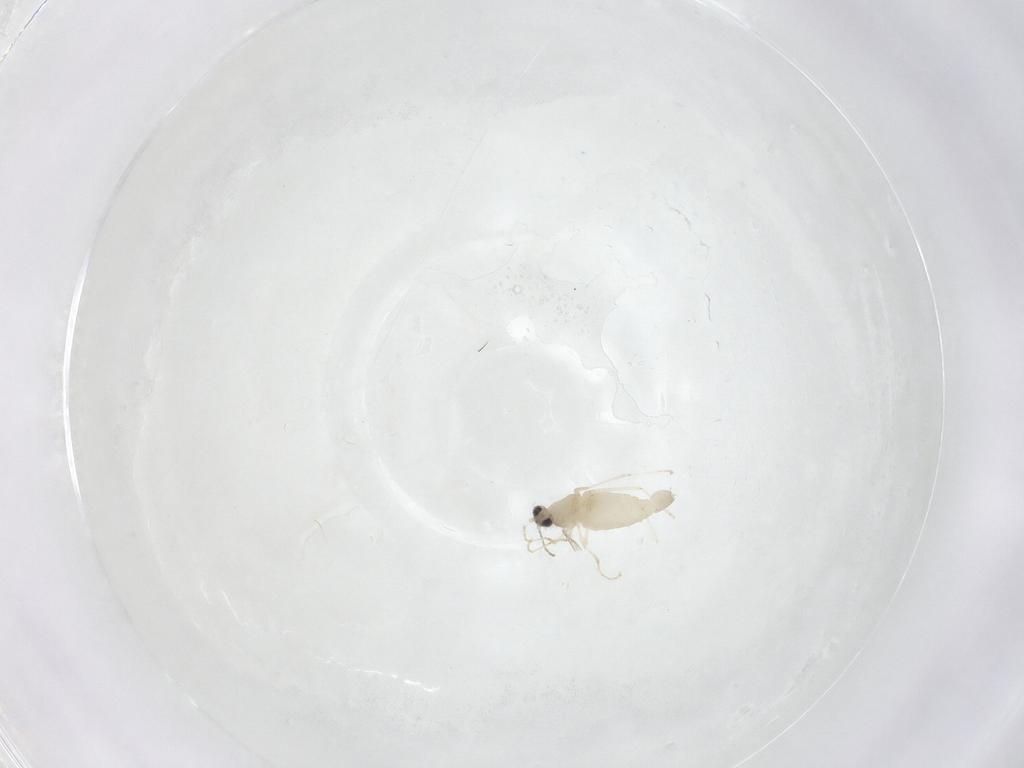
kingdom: Animalia
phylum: Arthropoda
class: Insecta
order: Diptera
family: Cecidomyiidae
